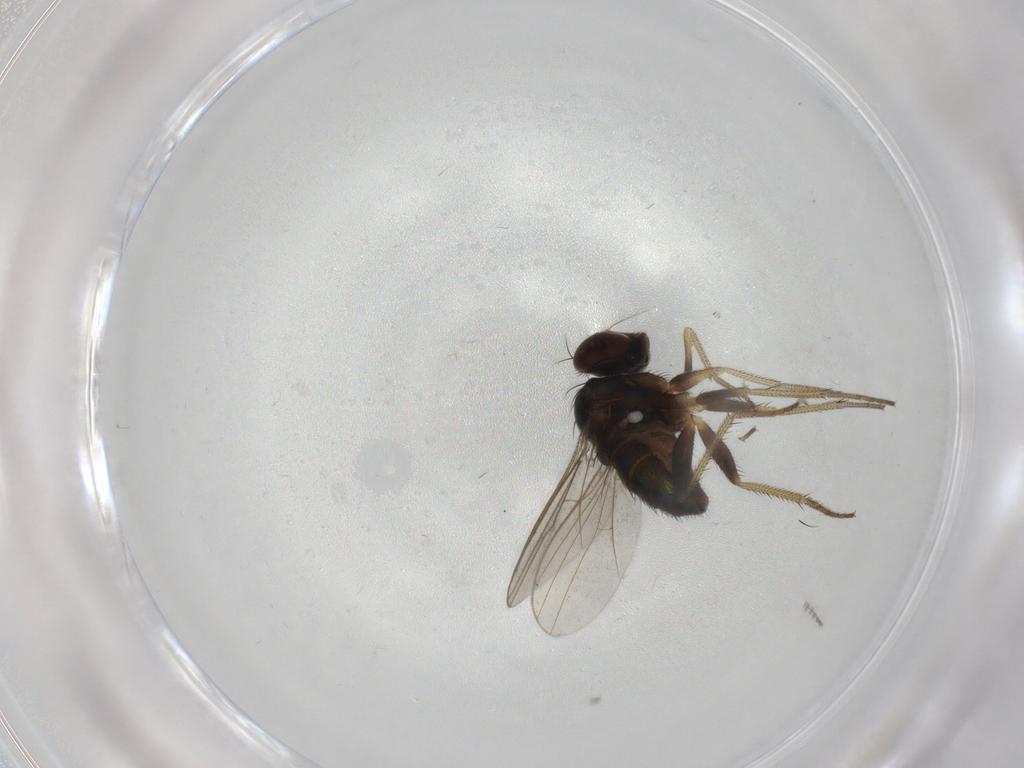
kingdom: Animalia
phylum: Arthropoda
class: Insecta
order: Diptera
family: Dolichopodidae
